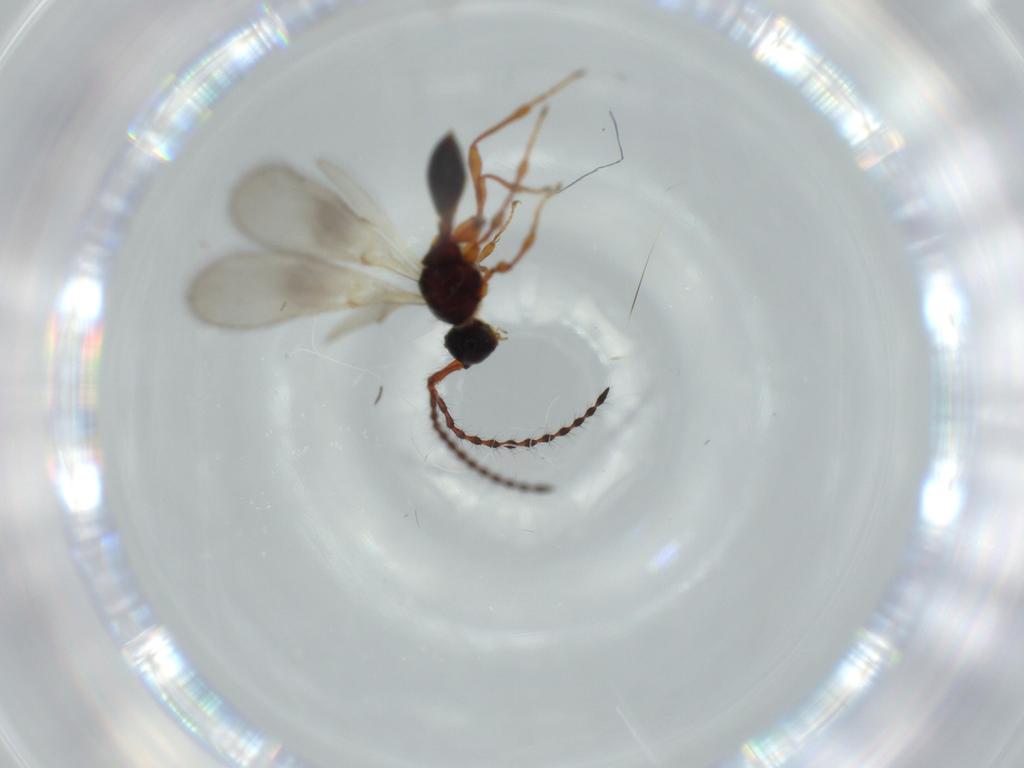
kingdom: Animalia
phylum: Arthropoda
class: Insecta
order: Hymenoptera
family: Diapriidae
